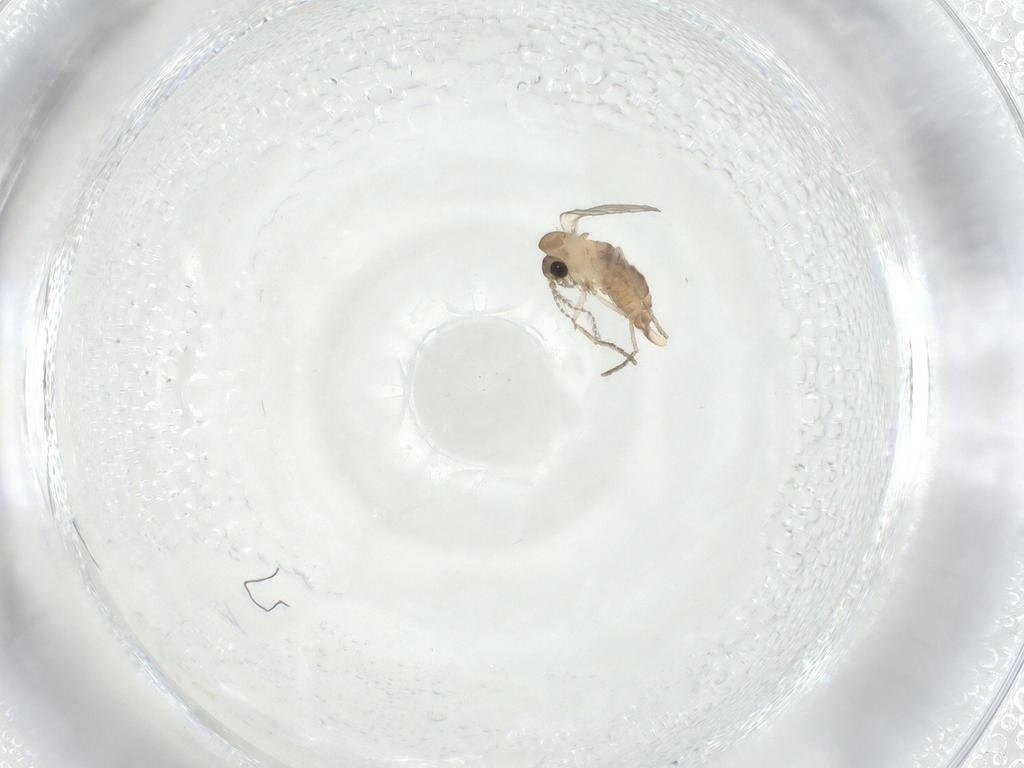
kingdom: Animalia
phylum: Arthropoda
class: Insecta
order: Diptera
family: Psychodidae
